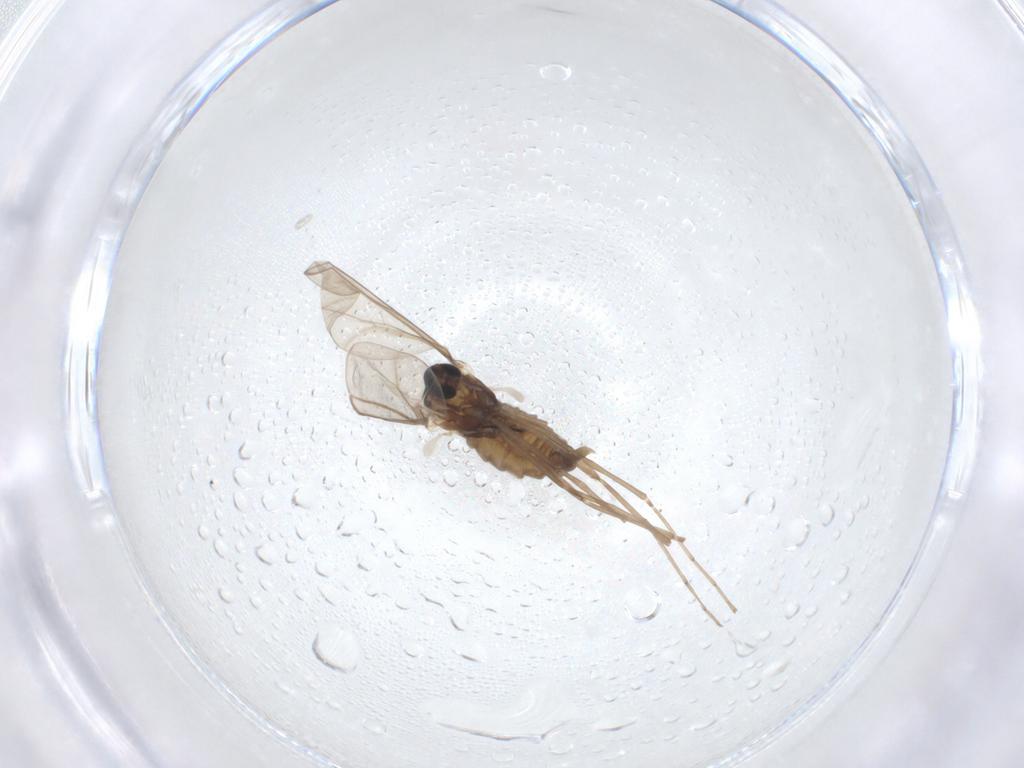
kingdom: Animalia
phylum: Arthropoda
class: Insecta
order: Diptera
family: Cecidomyiidae
